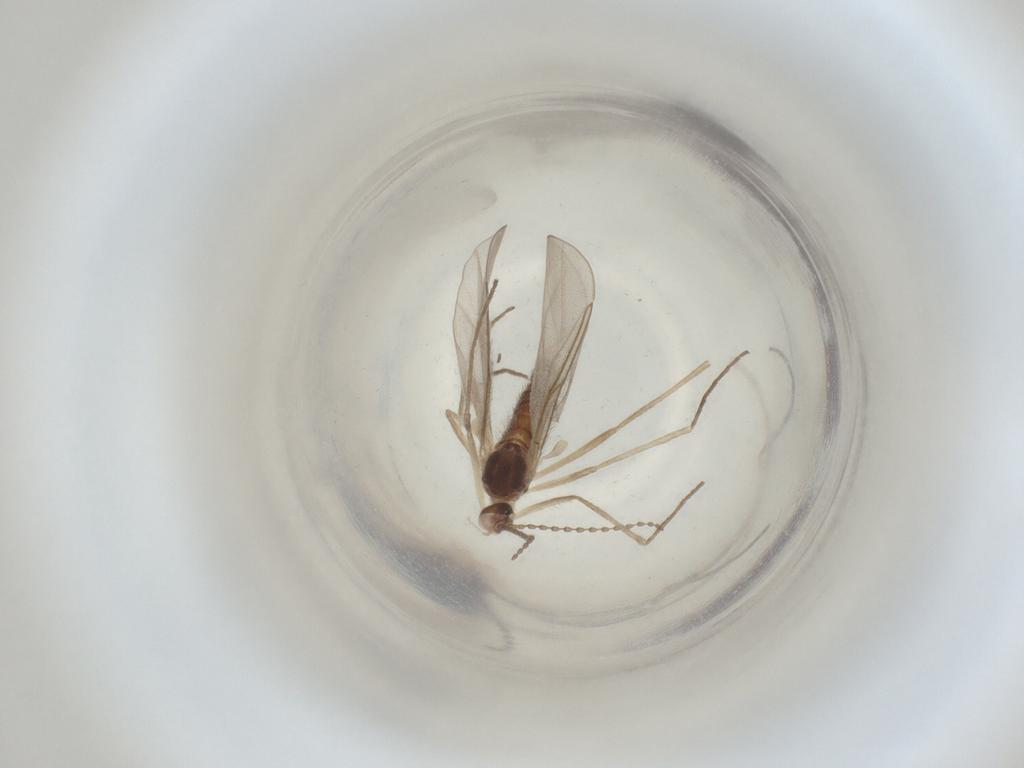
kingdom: Animalia
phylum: Arthropoda
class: Insecta
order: Diptera
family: Cecidomyiidae
